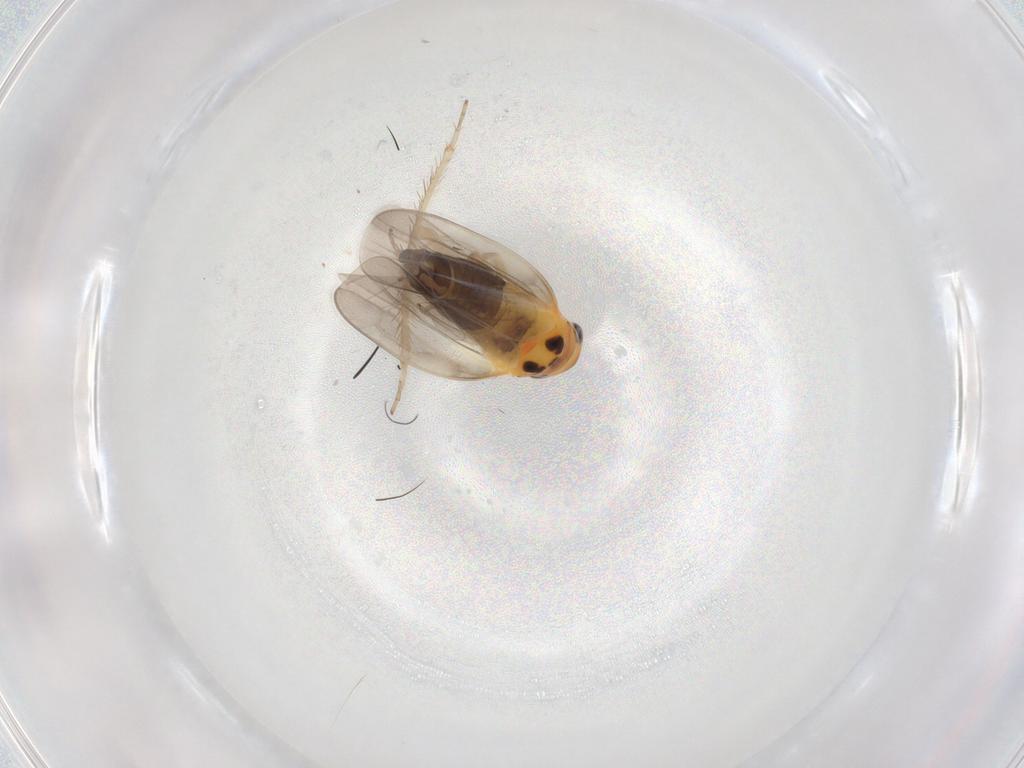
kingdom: Animalia
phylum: Arthropoda
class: Insecta
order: Hemiptera
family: Cicadellidae
